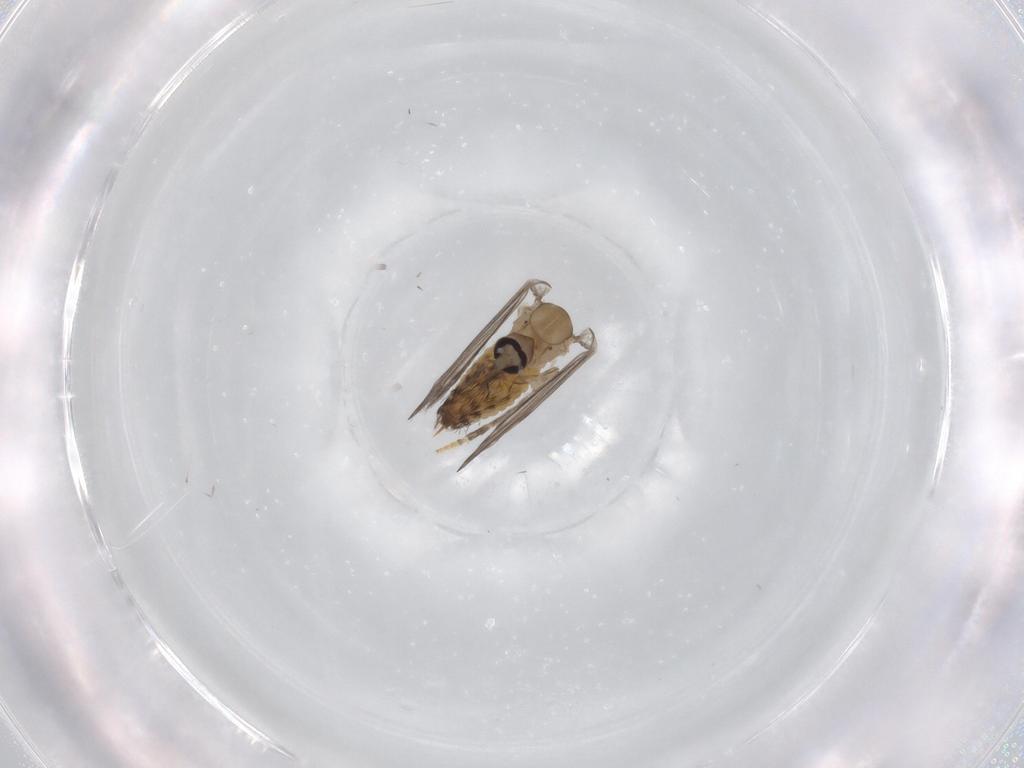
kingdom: Animalia
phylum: Arthropoda
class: Insecta
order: Diptera
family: Psychodidae
